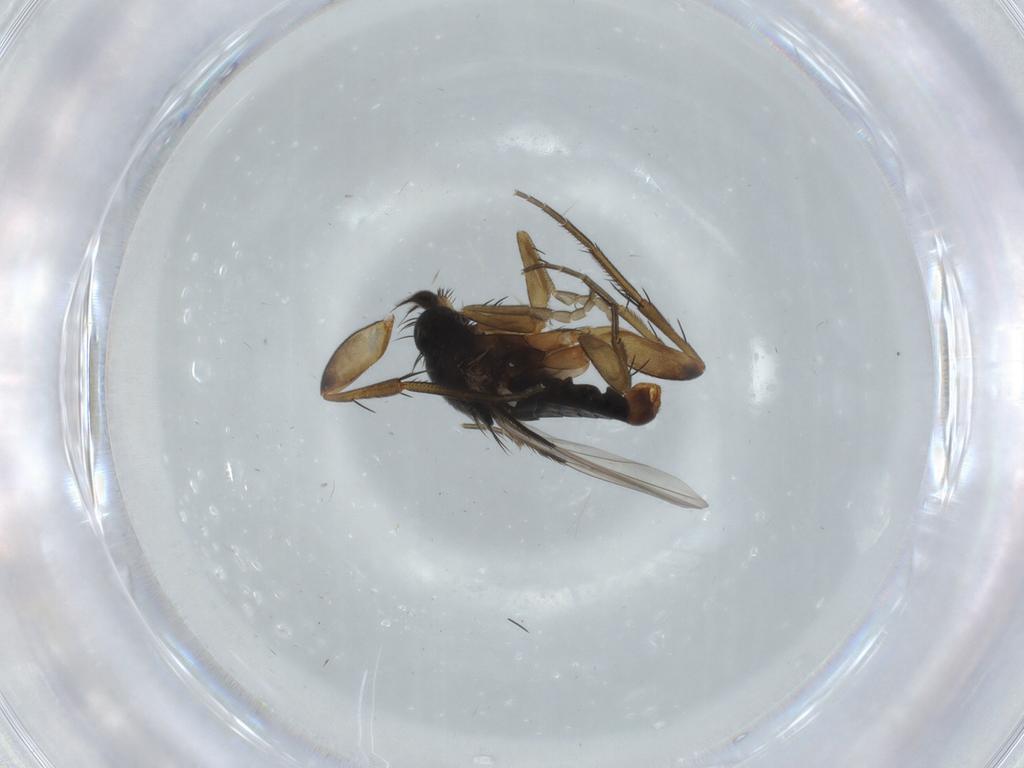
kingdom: Animalia
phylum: Arthropoda
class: Insecta
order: Diptera
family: Phoridae
